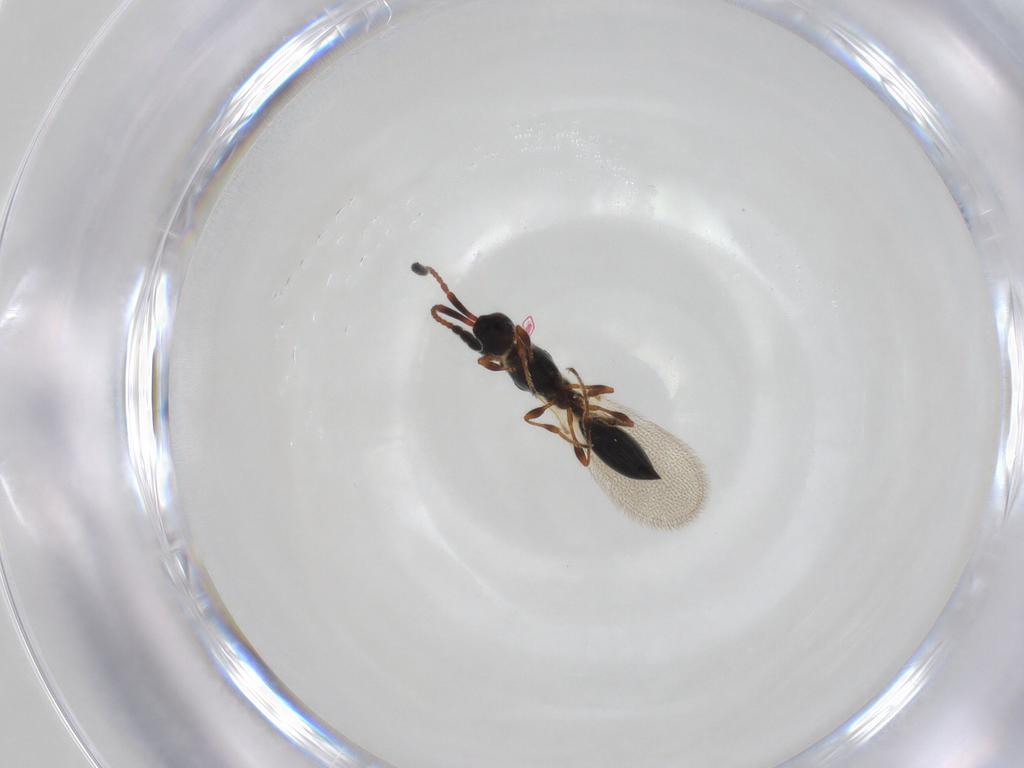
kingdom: Animalia
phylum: Arthropoda
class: Insecta
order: Hymenoptera
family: Diapriidae
